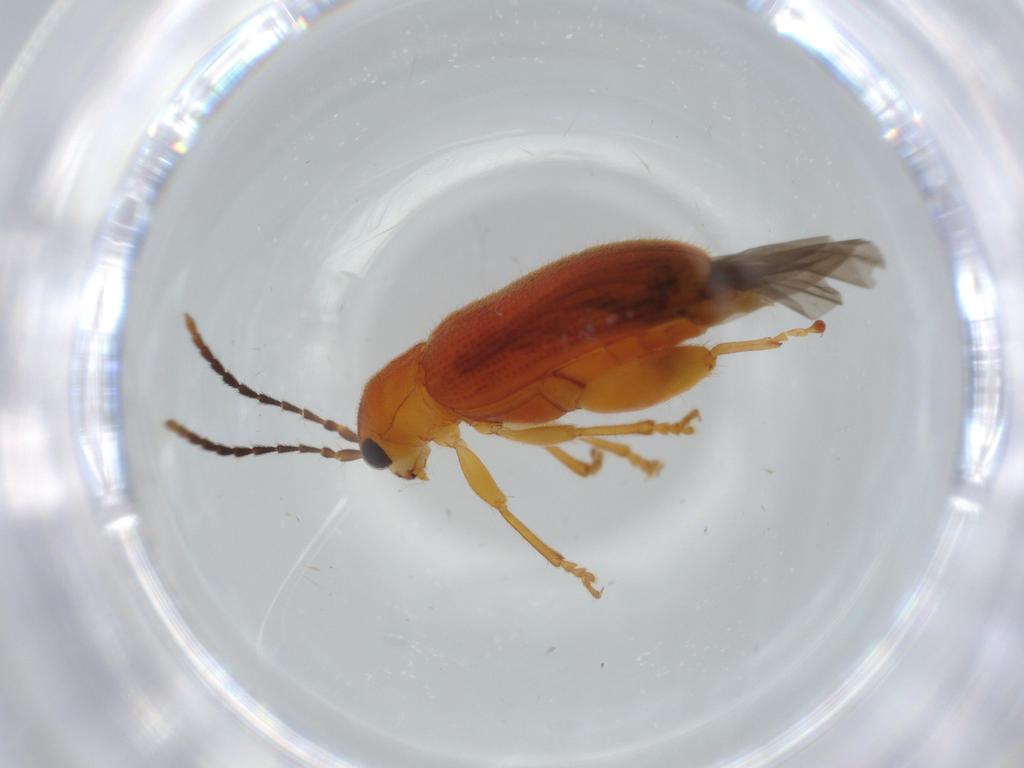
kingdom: Animalia
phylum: Arthropoda
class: Insecta
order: Coleoptera
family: Chrysomelidae
